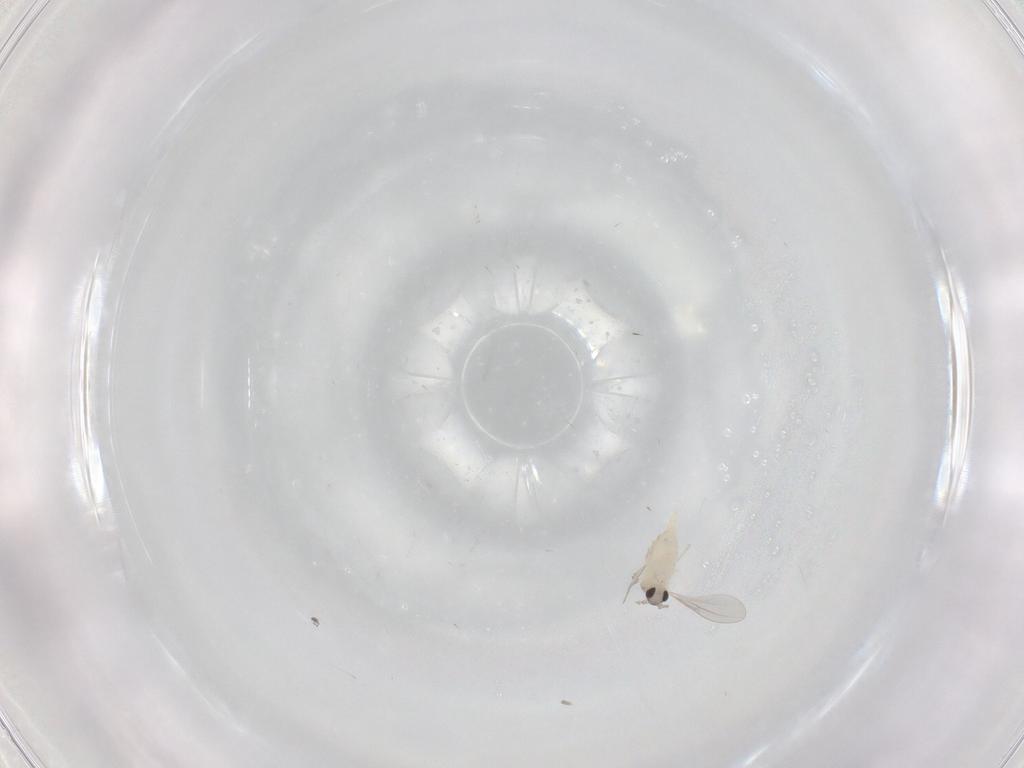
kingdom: Animalia
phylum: Arthropoda
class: Insecta
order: Diptera
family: Cecidomyiidae
